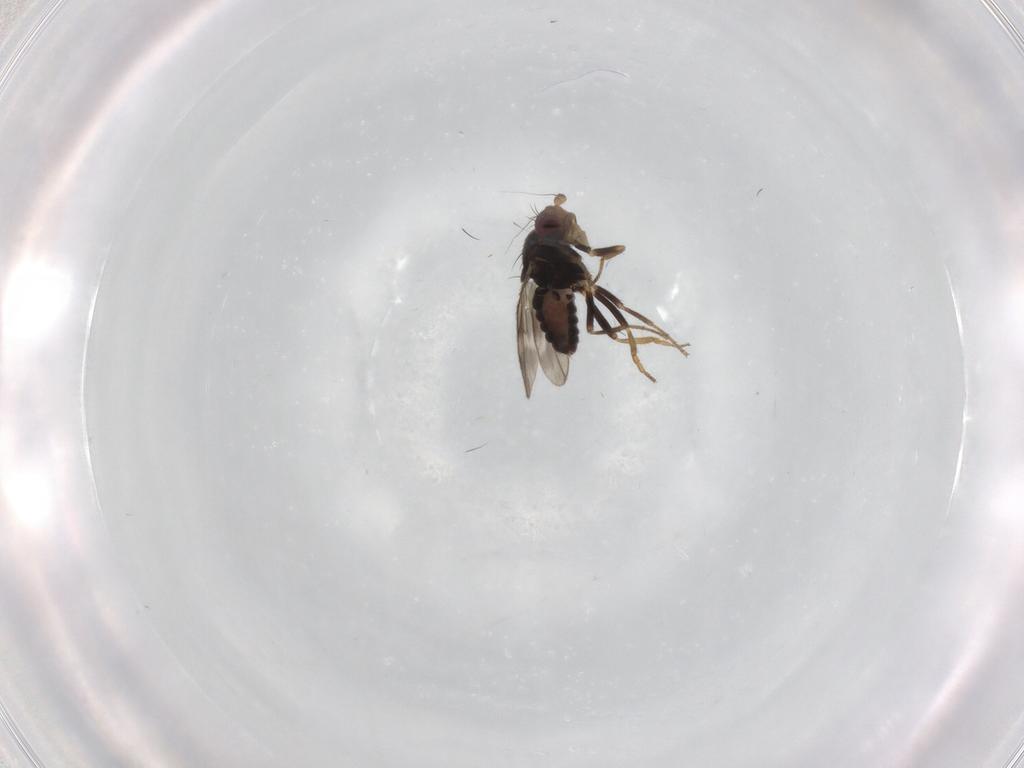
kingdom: Animalia
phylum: Arthropoda
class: Insecta
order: Diptera
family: Sphaeroceridae
